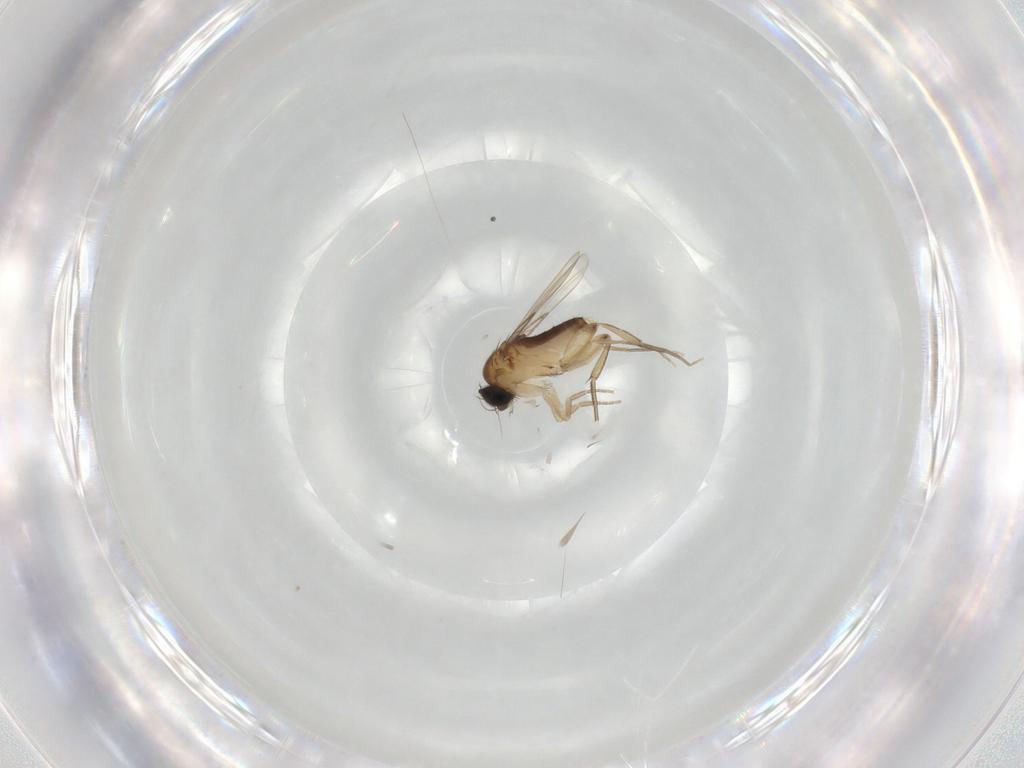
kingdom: Animalia
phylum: Arthropoda
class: Insecta
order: Diptera
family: Phoridae
